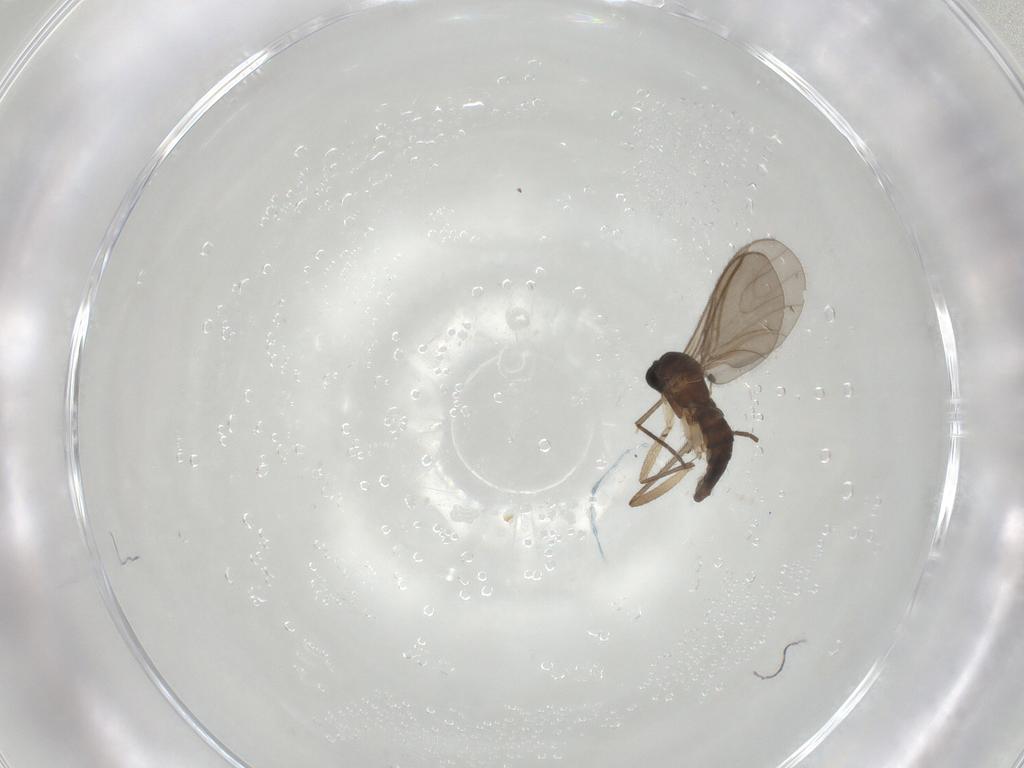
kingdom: Animalia
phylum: Arthropoda
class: Insecta
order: Diptera
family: Sciaridae
